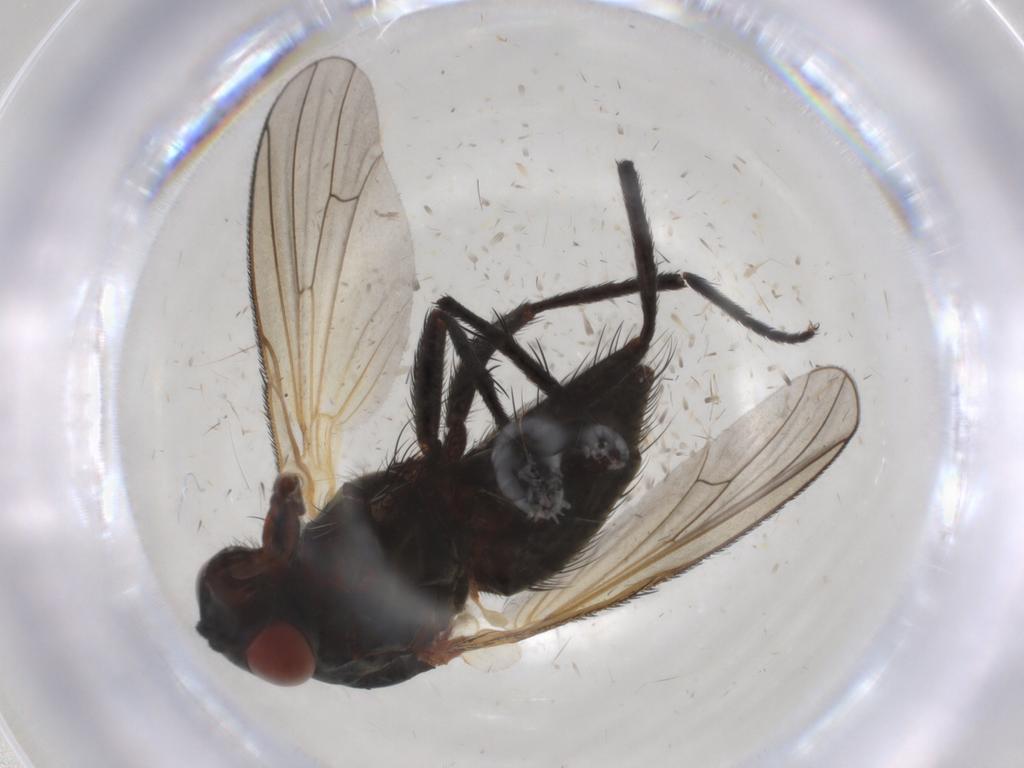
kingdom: Animalia
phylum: Arthropoda
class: Insecta
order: Diptera
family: Anthomyiidae
